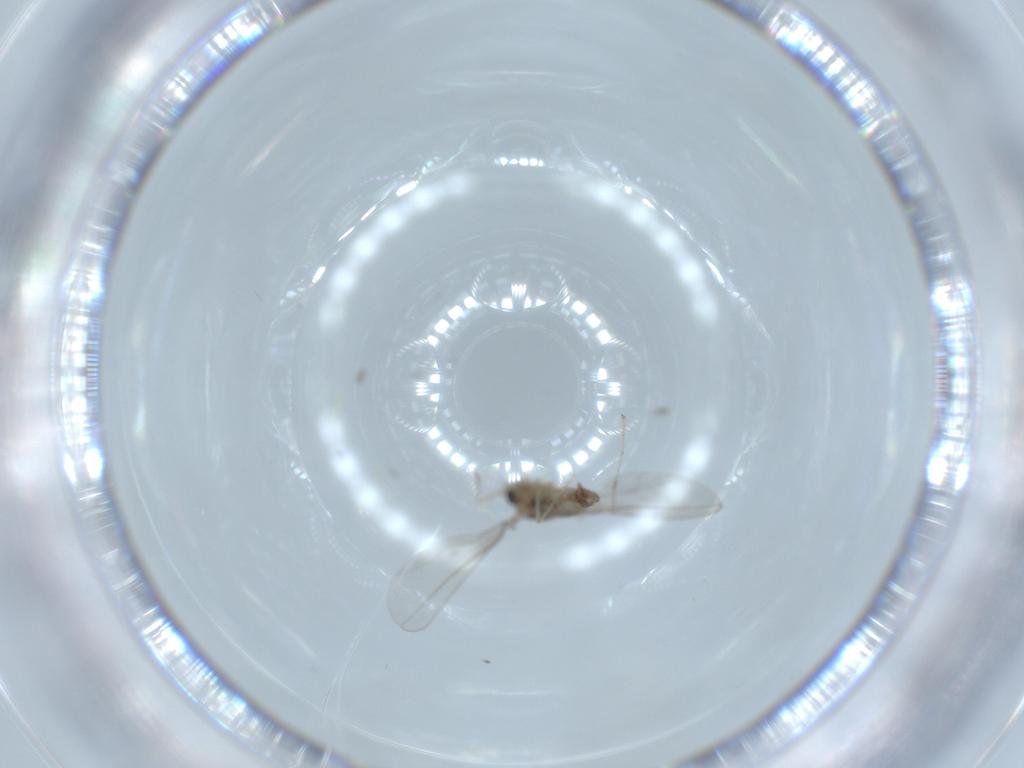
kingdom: Animalia
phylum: Arthropoda
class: Insecta
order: Diptera
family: Cecidomyiidae
